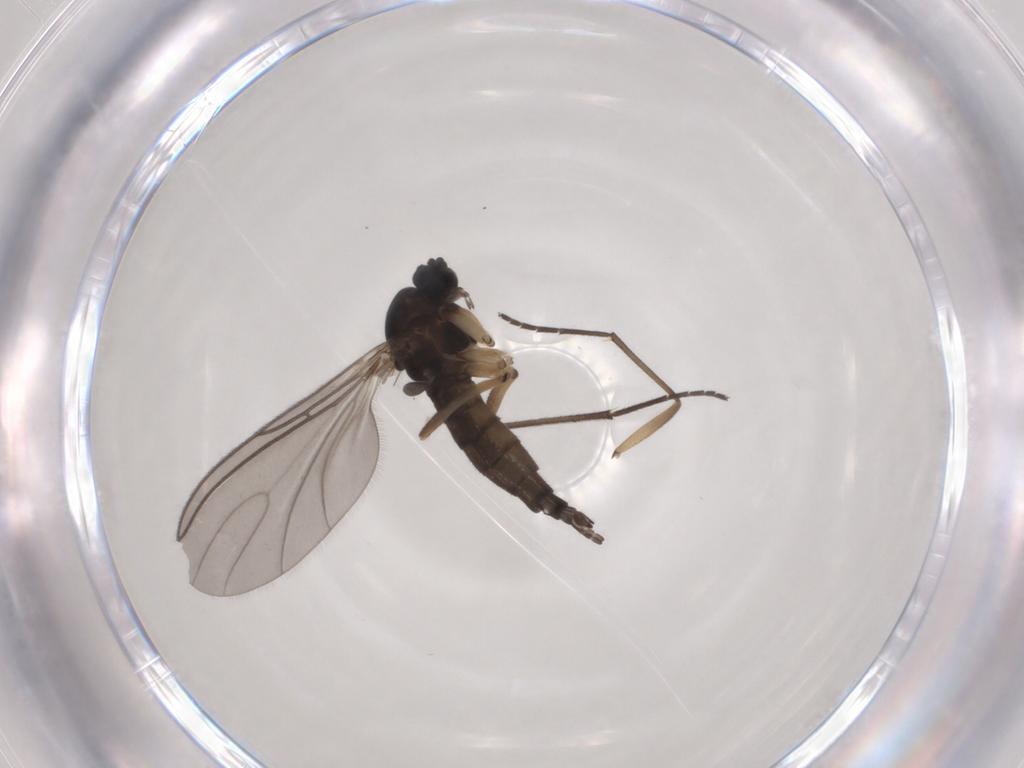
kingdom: Animalia
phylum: Arthropoda
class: Insecta
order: Diptera
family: Sciaridae
